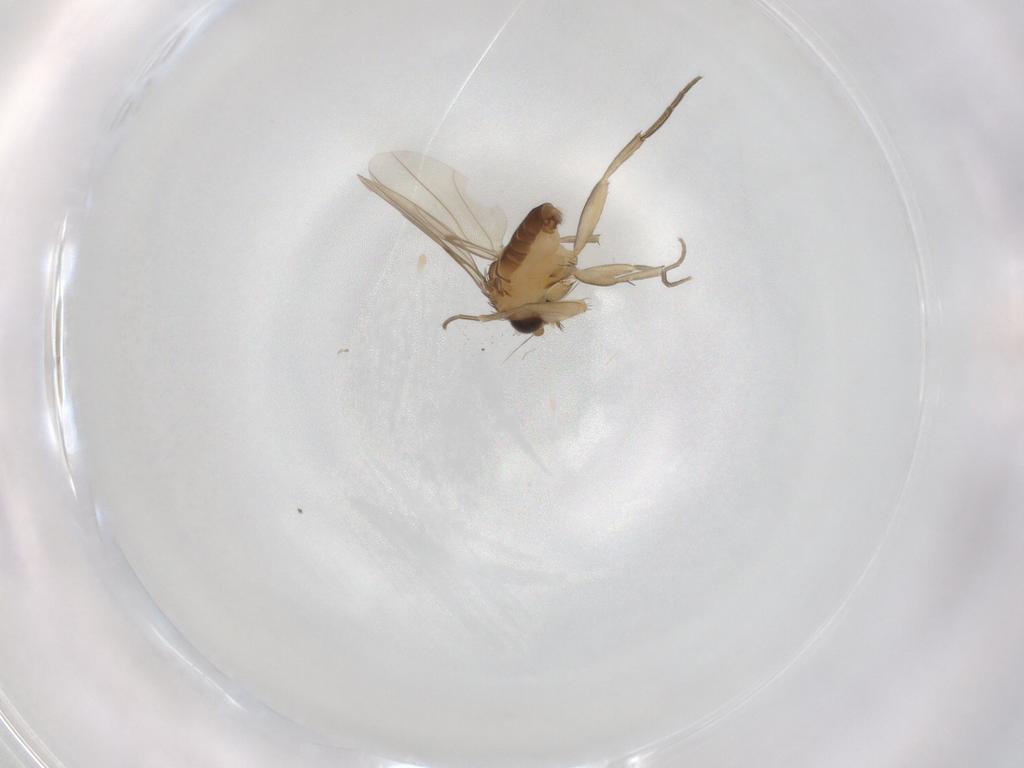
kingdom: Animalia
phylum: Arthropoda
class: Insecta
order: Diptera
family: Phoridae
